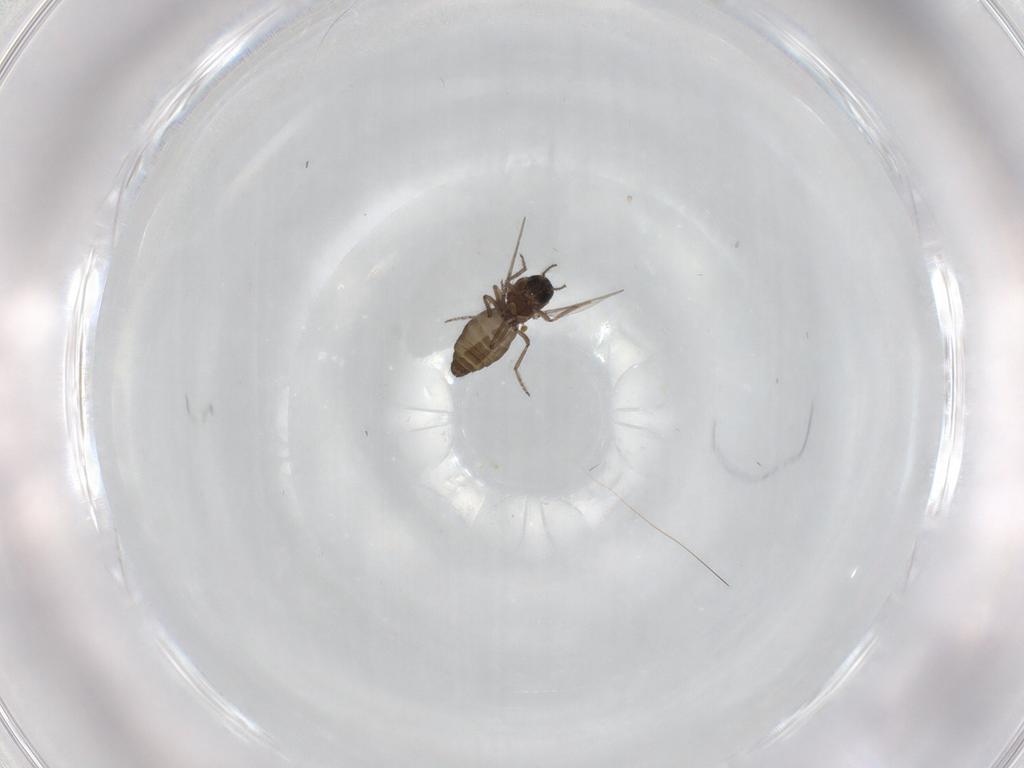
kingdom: Animalia
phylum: Arthropoda
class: Insecta
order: Diptera
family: Ceratopogonidae
